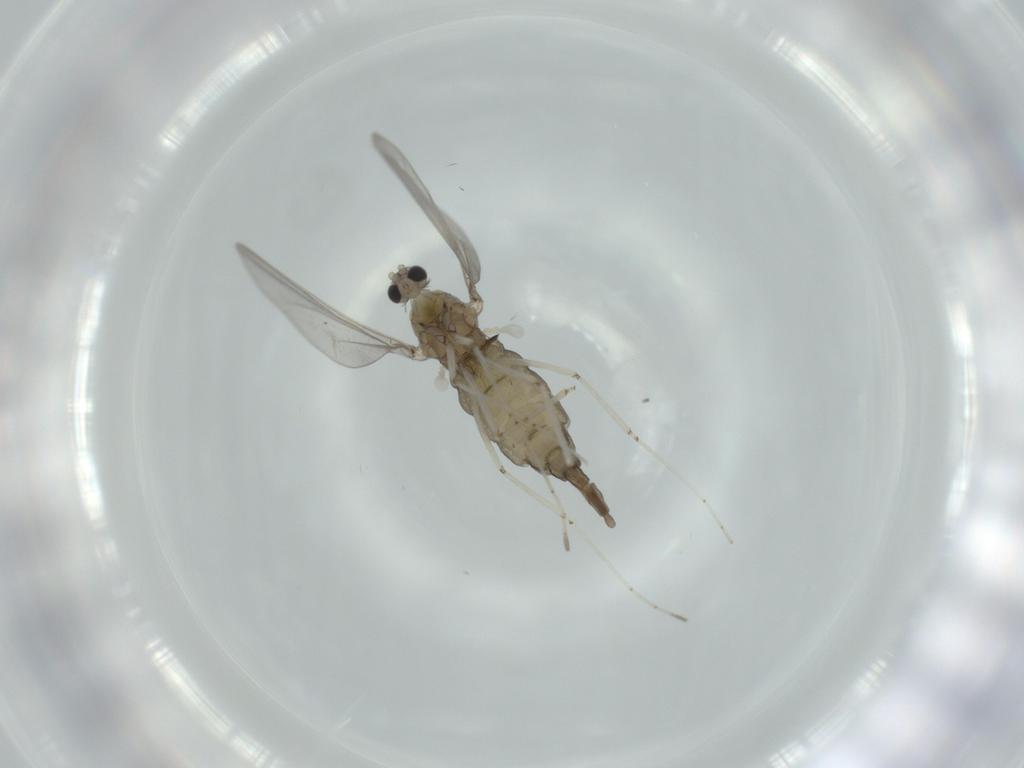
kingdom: Animalia
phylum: Arthropoda
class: Insecta
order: Diptera
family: Cecidomyiidae
